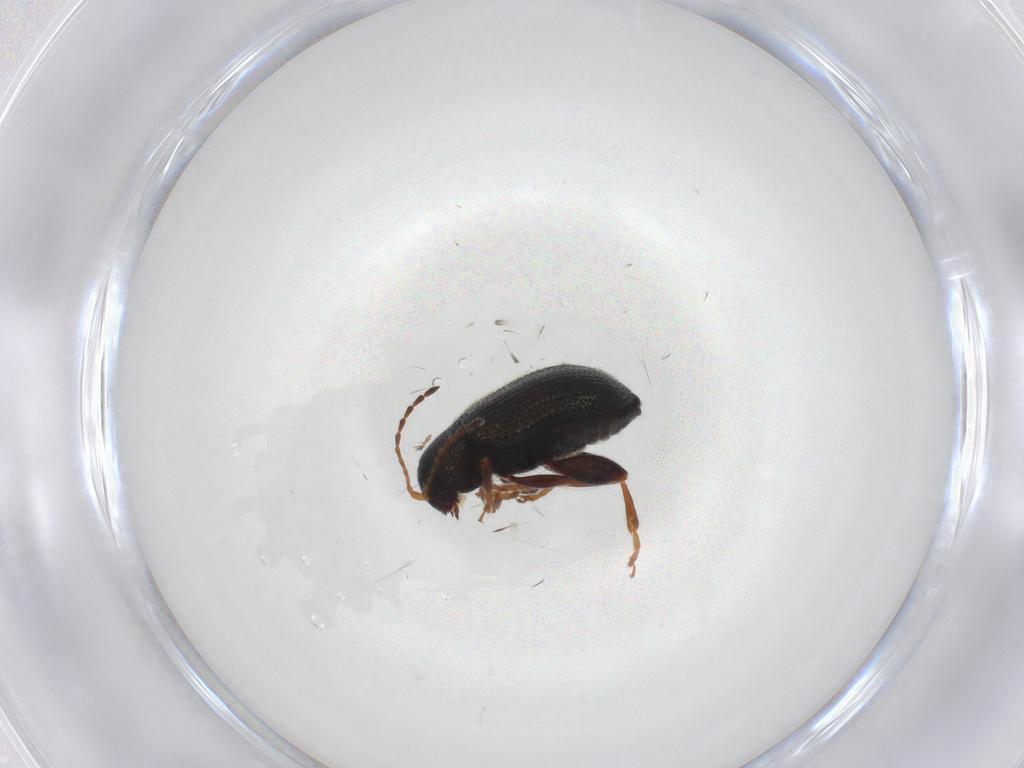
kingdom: Animalia
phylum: Arthropoda
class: Insecta
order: Coleoptera
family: Chrysomelidae
